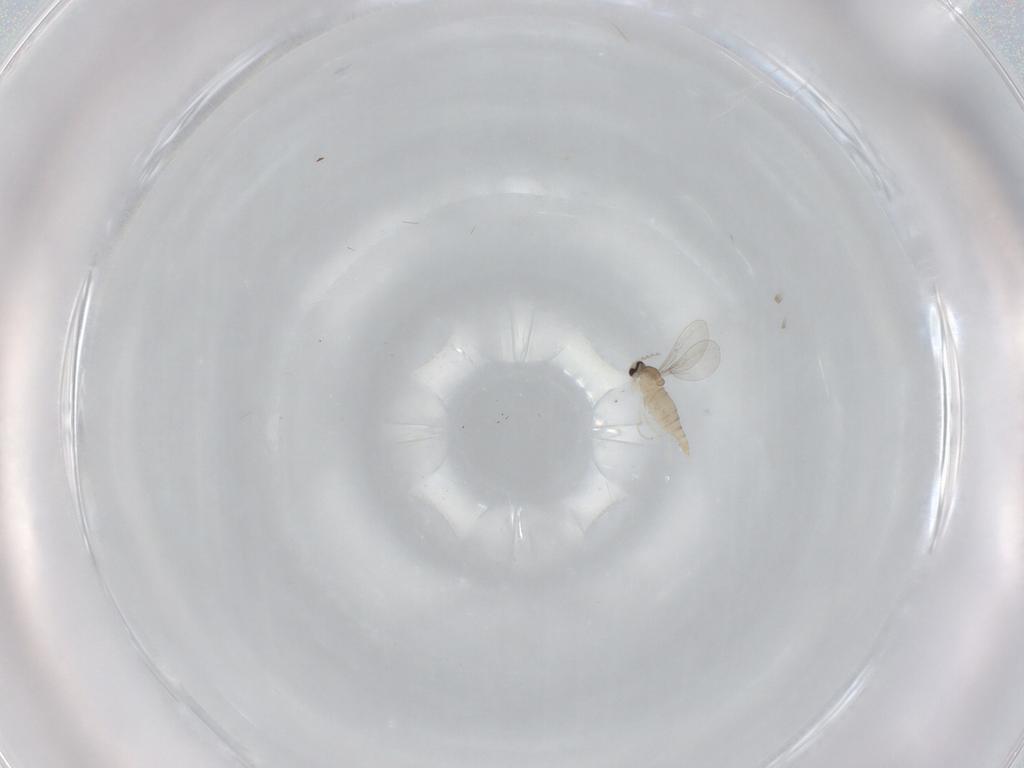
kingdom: Animalia
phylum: Arthropoda
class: Insecta
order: Diptera
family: Cecidomyiidae
